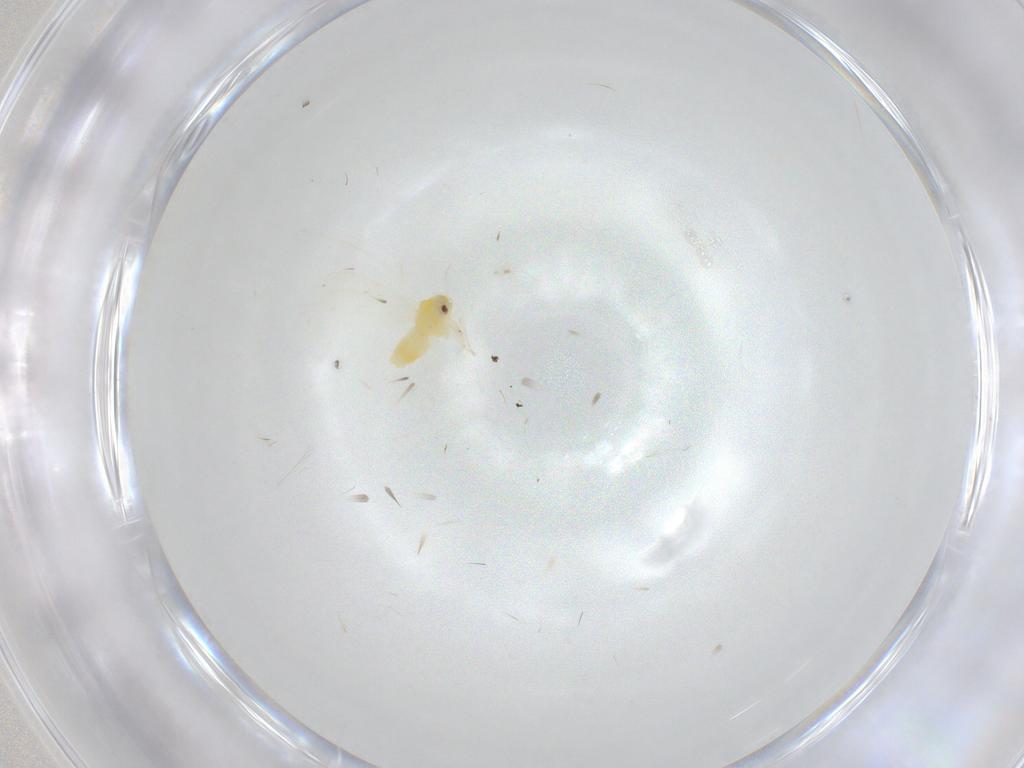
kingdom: Animalia
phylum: Arthropoda
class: Insecta
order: Hemiptera
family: Aleyrodidae
